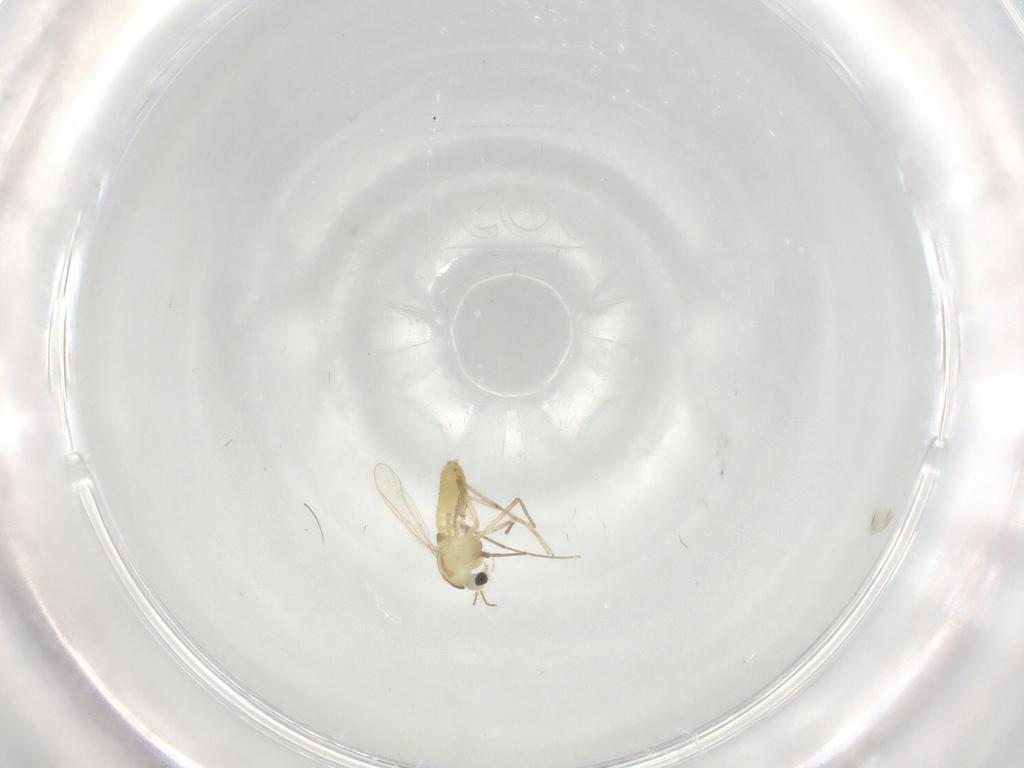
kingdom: Animalia
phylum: Arthropoda
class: Insecta
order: Diptera
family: Chironomidae
